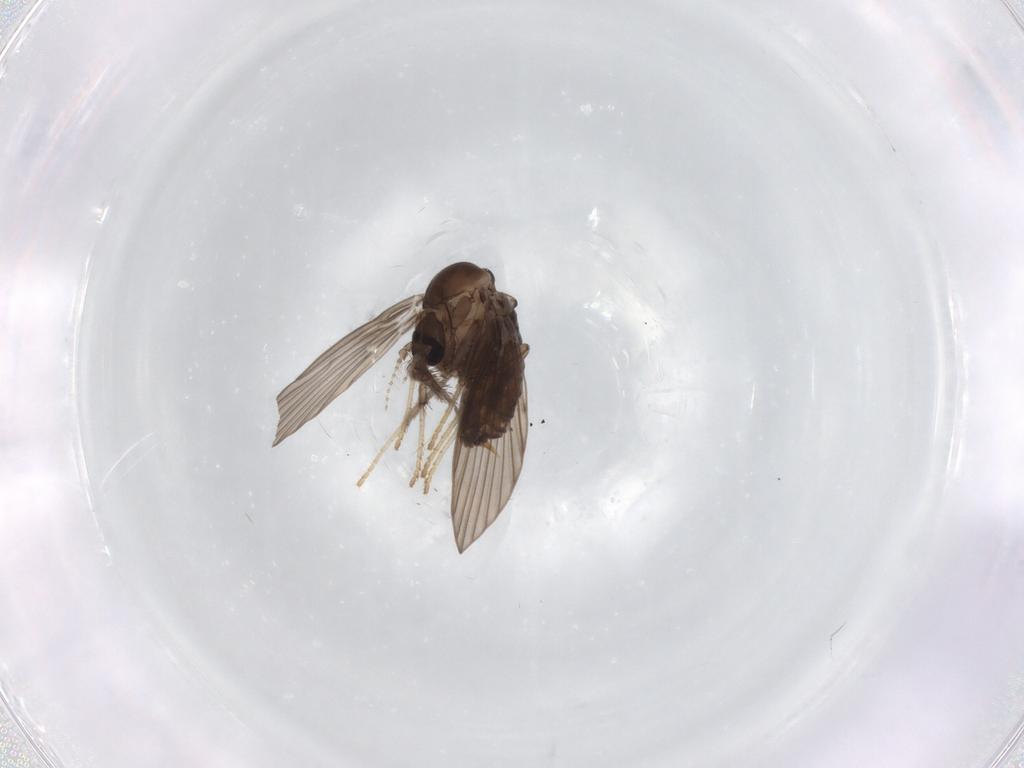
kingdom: Animalia
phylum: Arthropoda
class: Insecta
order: Diptera
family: Psychodidae
